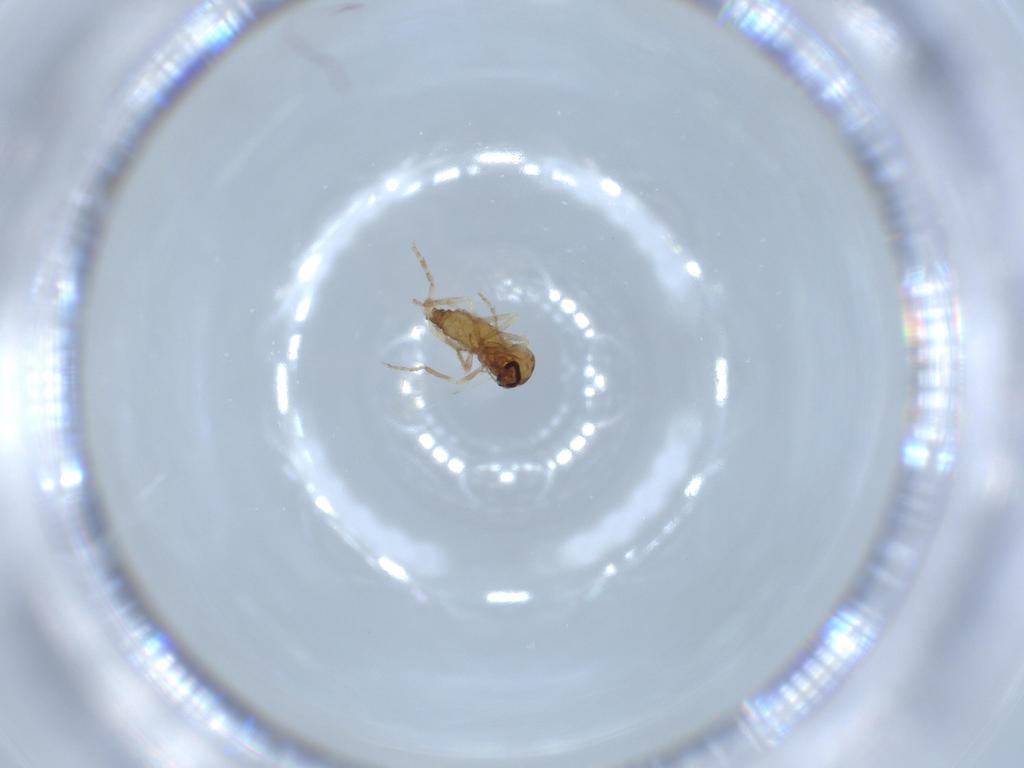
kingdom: Animalia
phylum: Arthropoda
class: Insecta
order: Diptera
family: Ceratopogonidae
